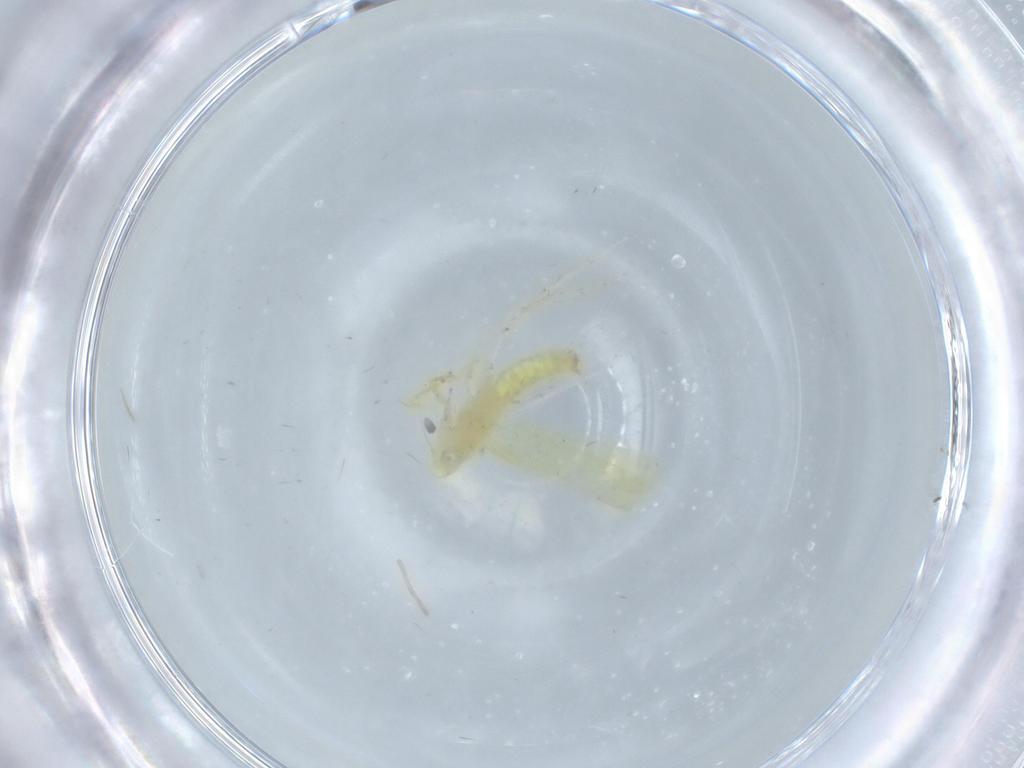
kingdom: Animalia
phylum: Arthropoda
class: Insecta
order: Hemiptera
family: Cicadellidae
